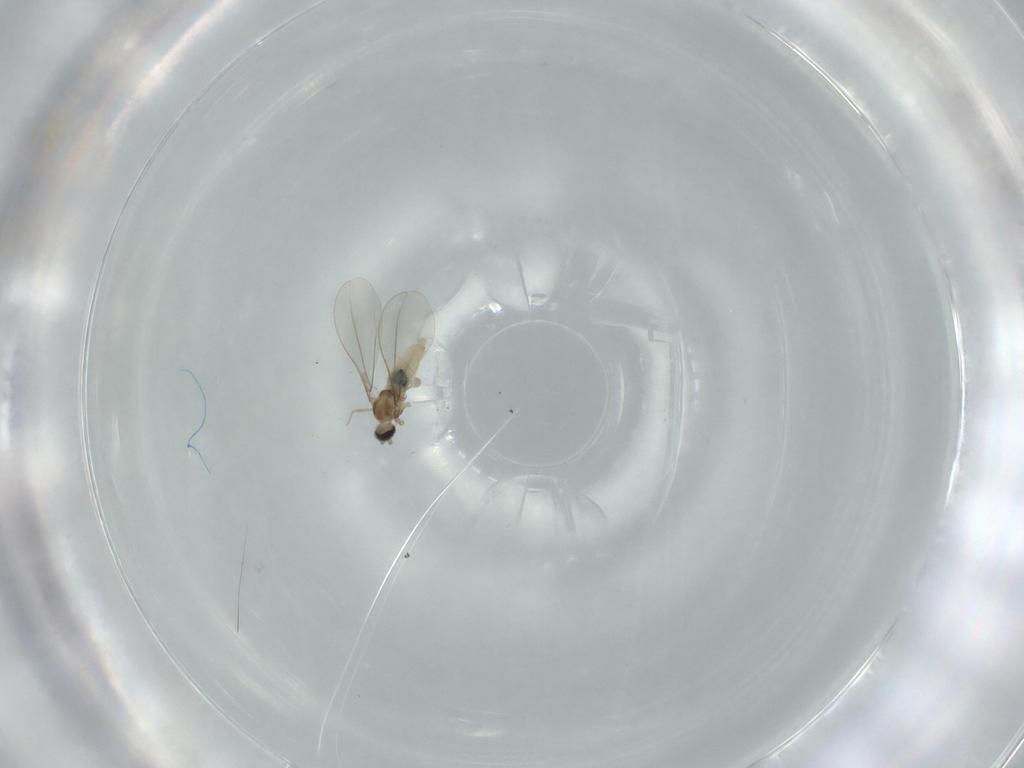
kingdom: Animalia
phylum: Arthropoda
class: Insecta
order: Diptera
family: Cecidomyiidae
